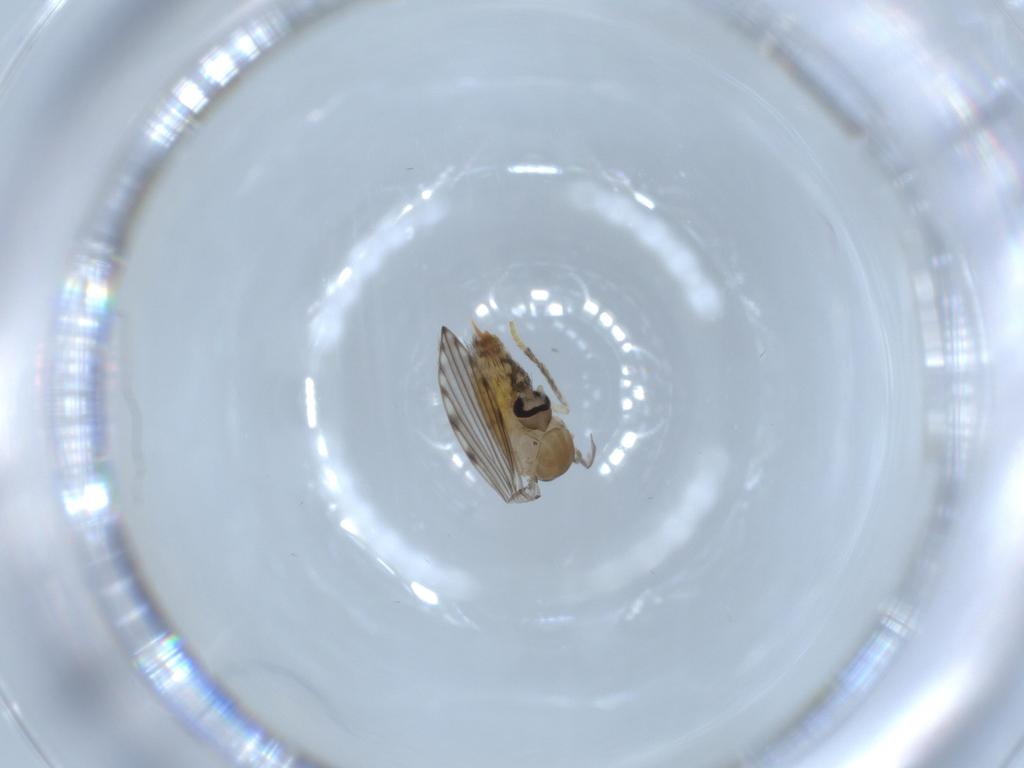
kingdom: Animalia
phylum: Arthropoda
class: Insecta
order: Diptera
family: Psychodidae
